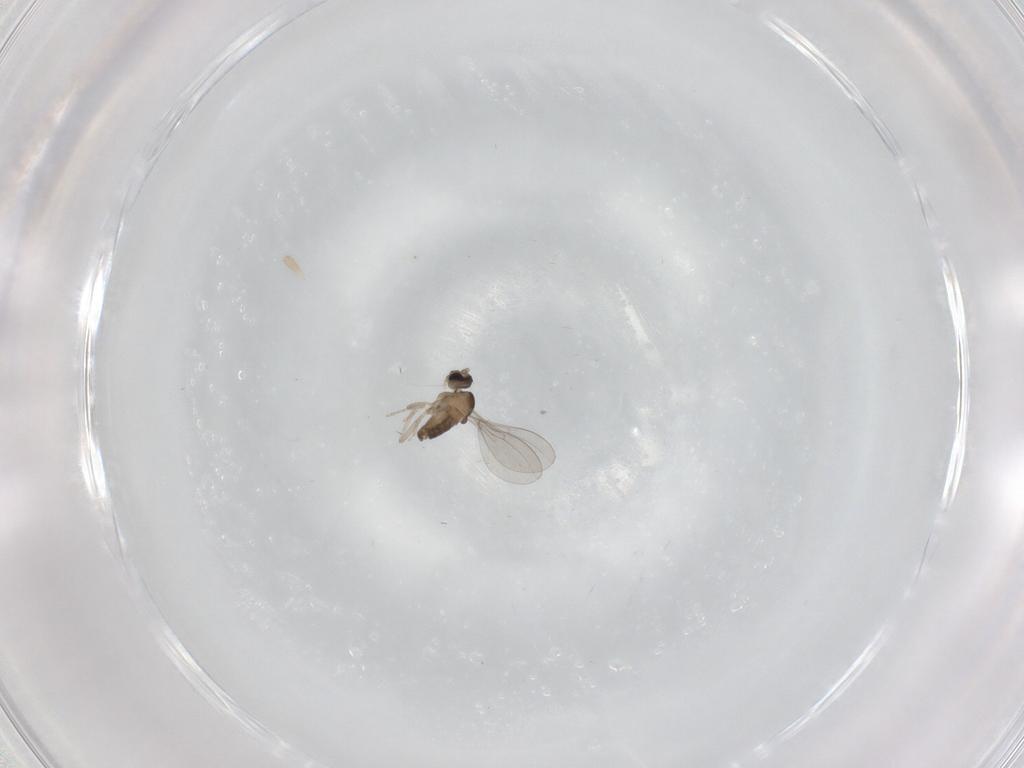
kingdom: Animalia
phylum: Arthropoda
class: Insecta
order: Diptera
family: Cecidomyiidae
